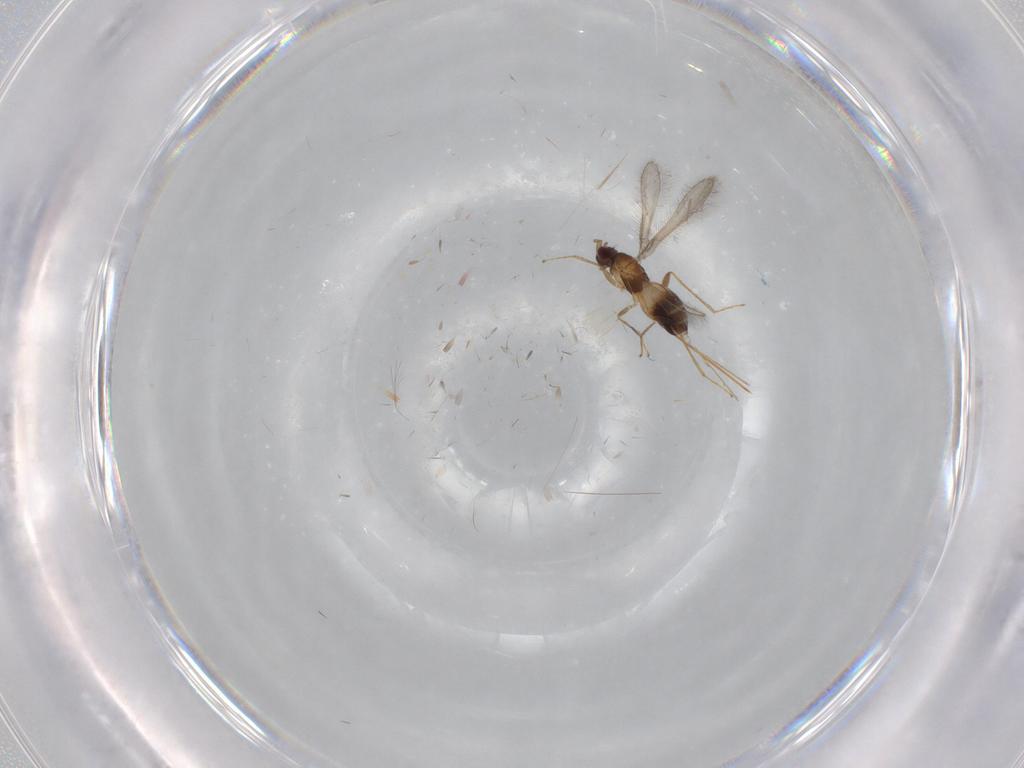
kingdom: Animalia
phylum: Arthropoda
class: Insecta
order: Hymenoptera
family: Mymaridae
